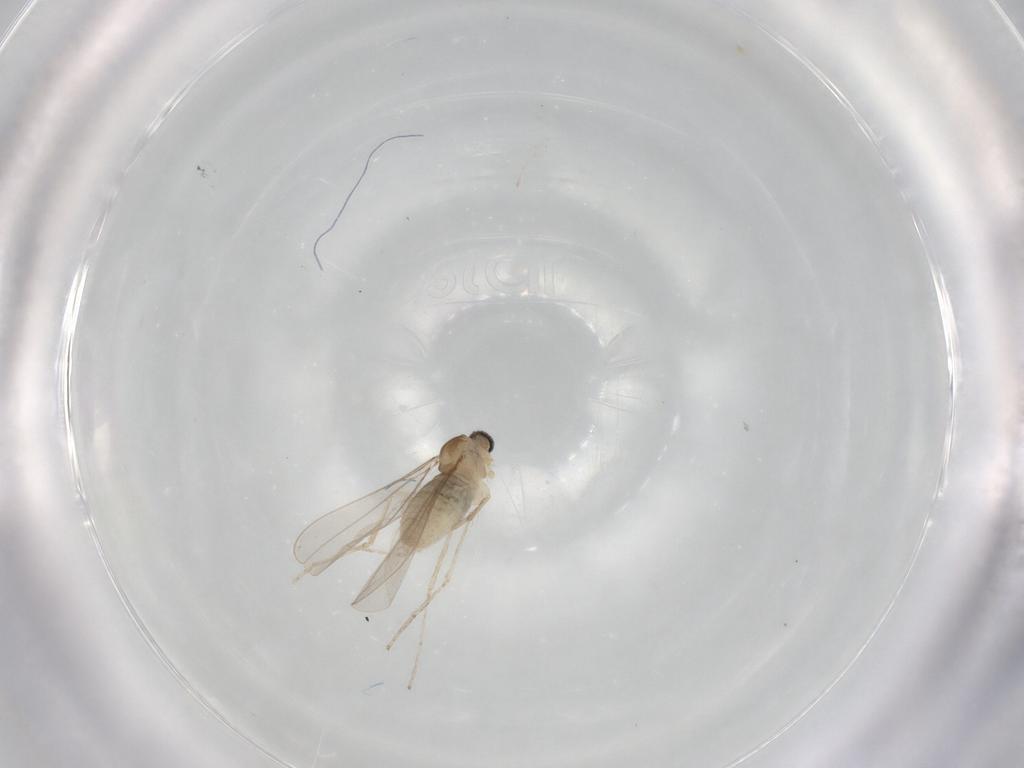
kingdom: Animalia
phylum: Arthropoda
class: Insecta
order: Diptera
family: Cecidomyiidae
